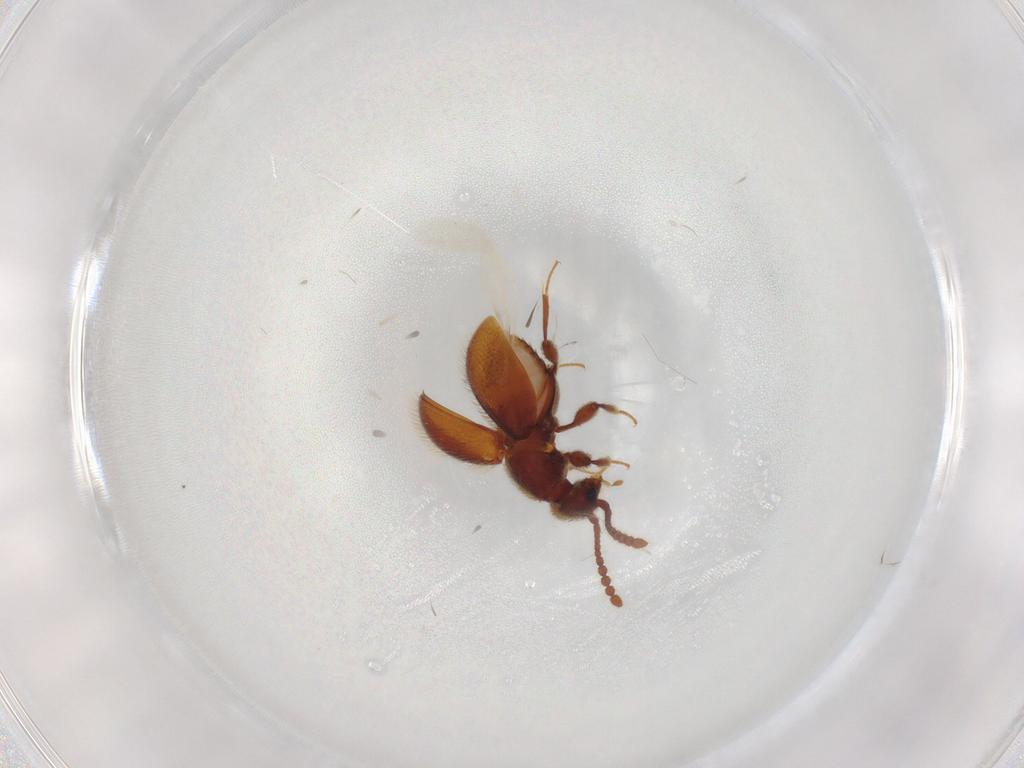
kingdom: Animalia
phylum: Arthropoda
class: Insecta
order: Coleoptera
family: Staphylinidae
